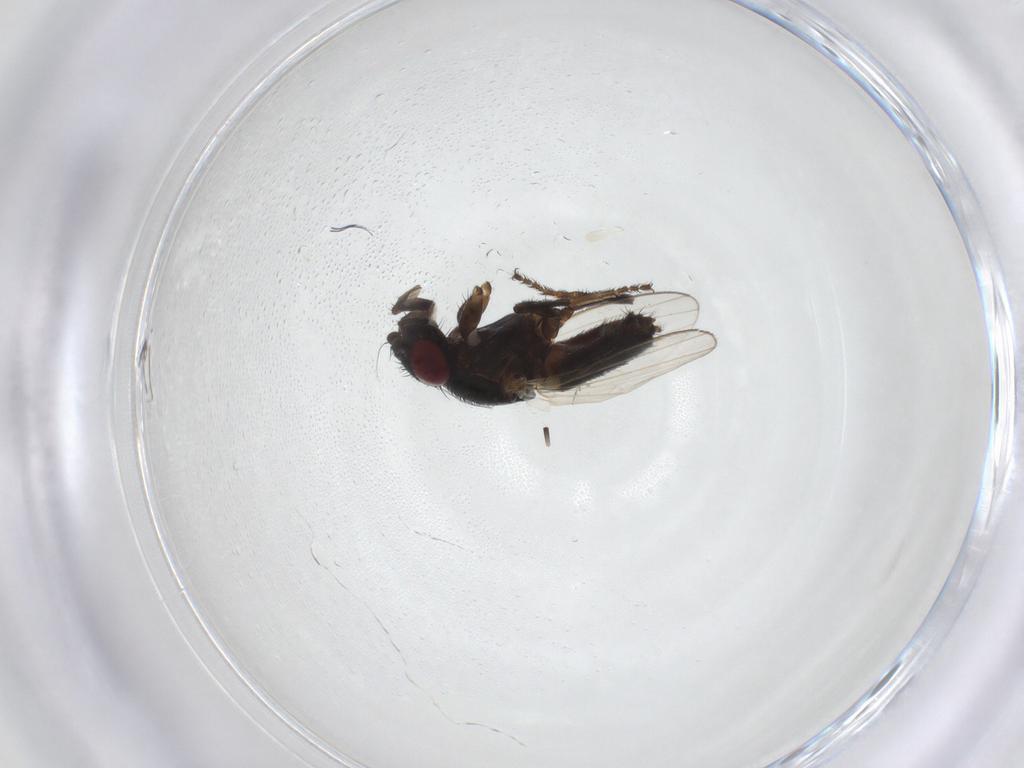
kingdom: Animalia
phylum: Arthropoda
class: Insecta
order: Diptera
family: Milichiidae
